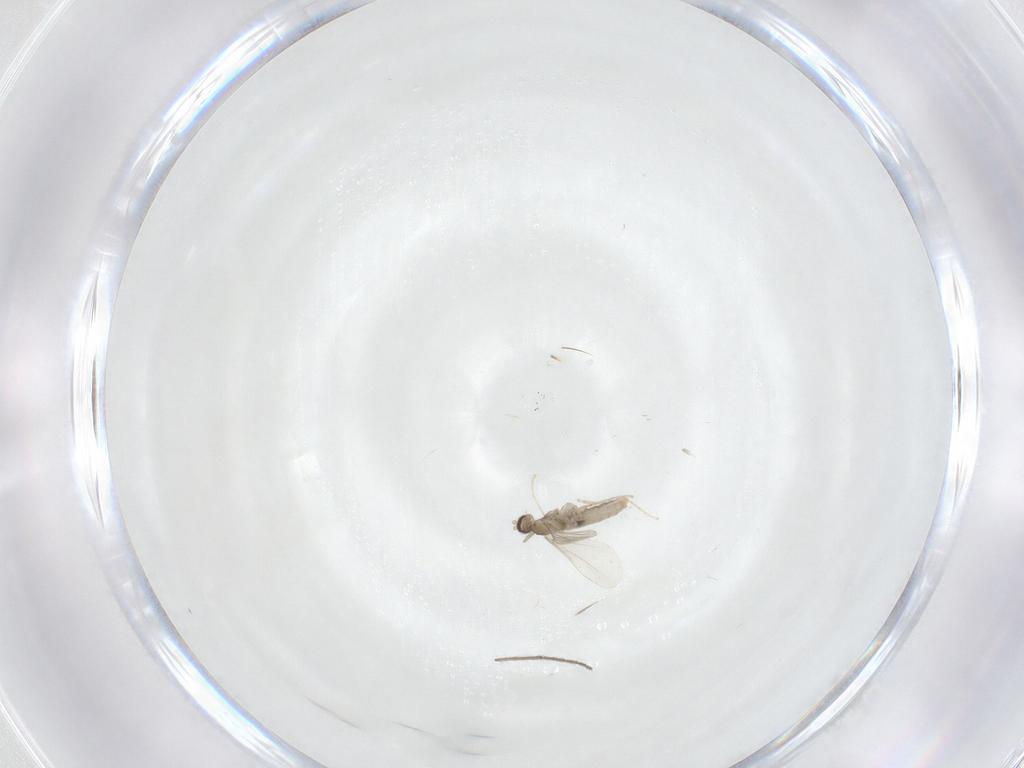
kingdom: Animalia
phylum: Arthropoda
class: Insecta
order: Diptera
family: Cecidomyiidae
